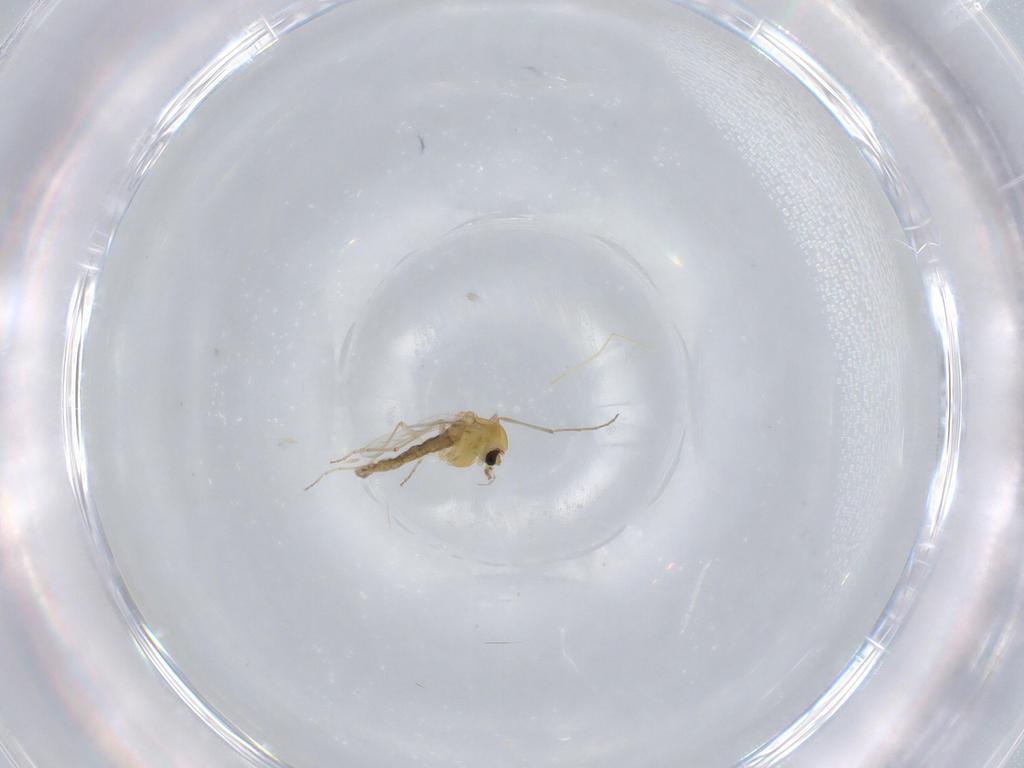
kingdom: Animalia
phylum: Arthropoda
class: Insecta
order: Diptera
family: Chironomidae
